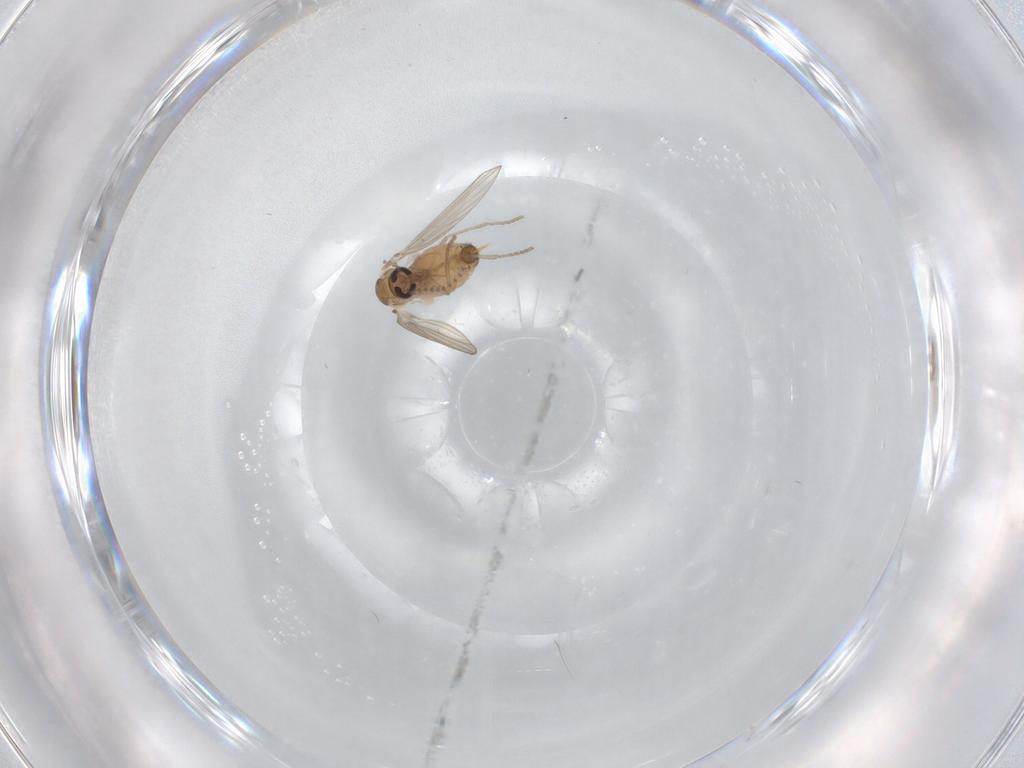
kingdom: Animalia
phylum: Arthropoda
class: Insecta
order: Diptera
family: Psychodidae
